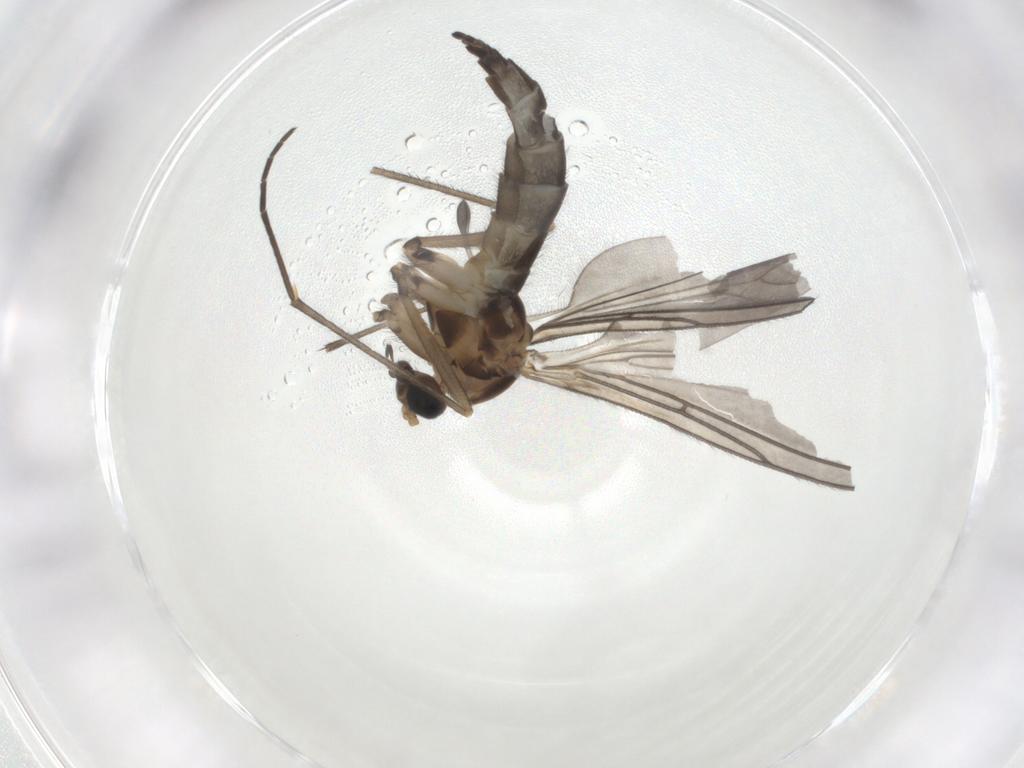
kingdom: Animalia
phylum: Arthropoda
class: Insecta
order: Diptera
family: Sciaridae
